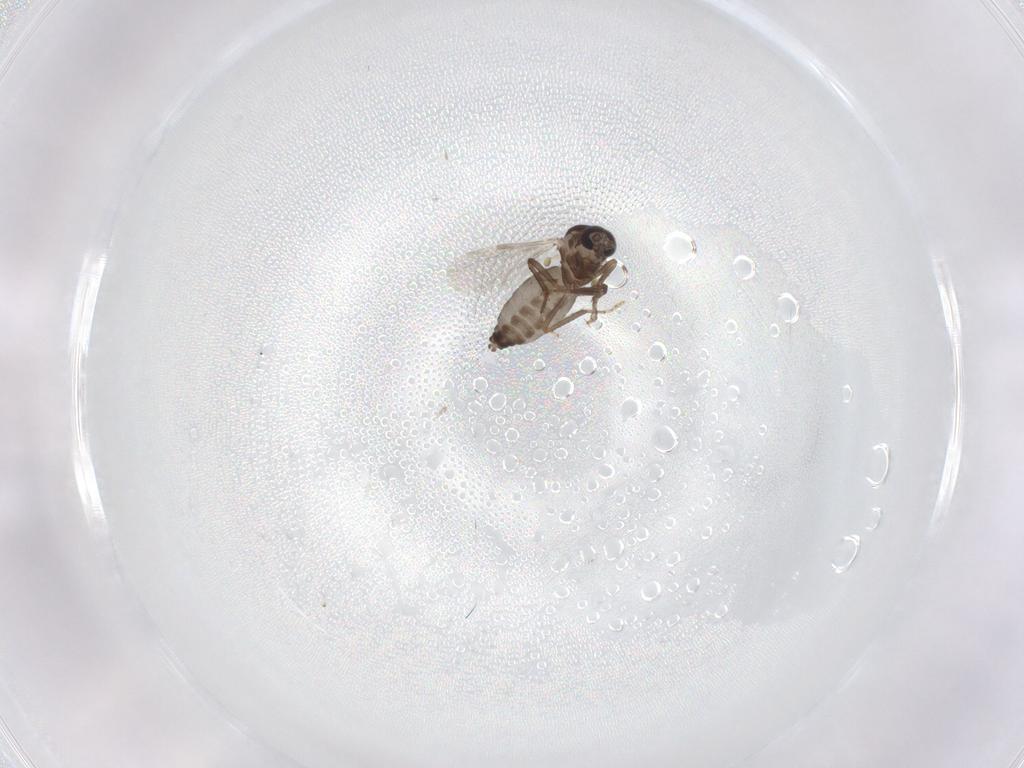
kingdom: Animalia
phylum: Arthropoda
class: Insecta
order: Diptera
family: Ceratopogonidae
